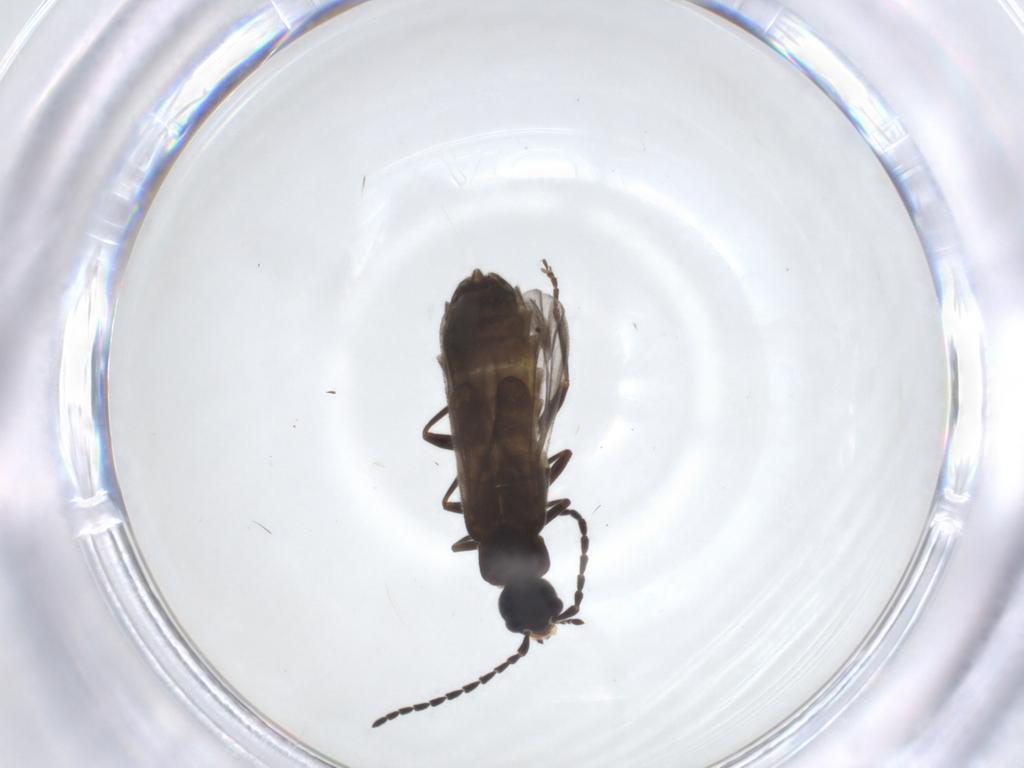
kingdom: Animalia
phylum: Arthropoda
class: Insecta
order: Coleoptera
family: Cantharidae
